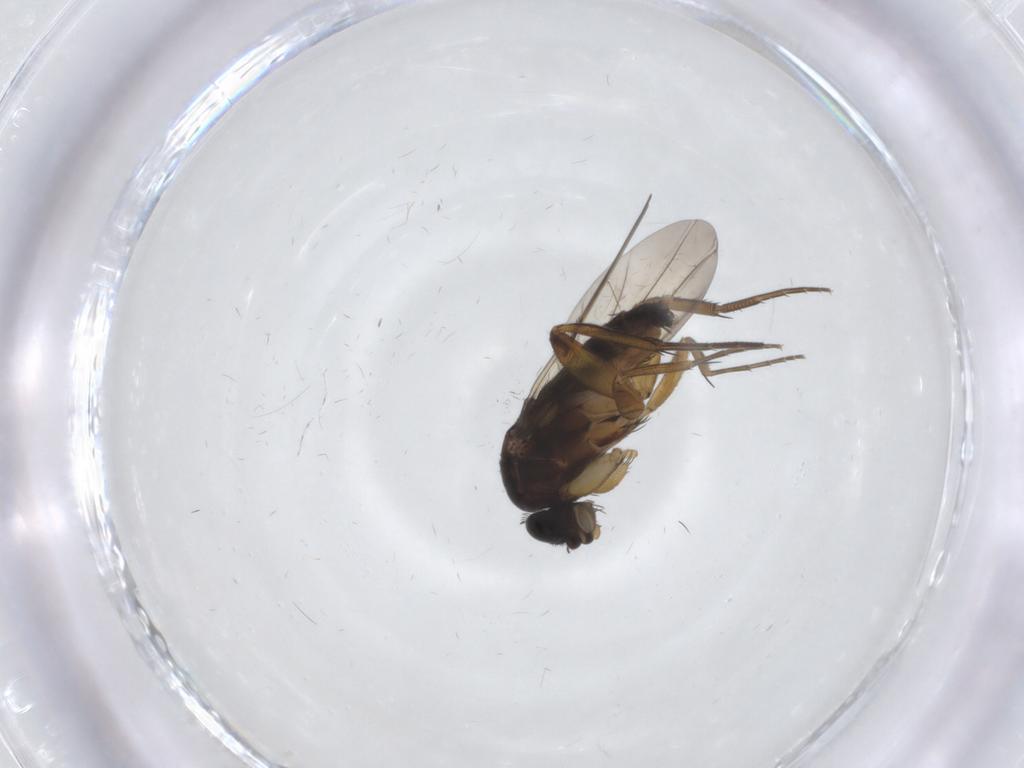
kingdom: Animalia
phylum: Arthropoda
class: Insecta
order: Diptera
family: Phoridae
